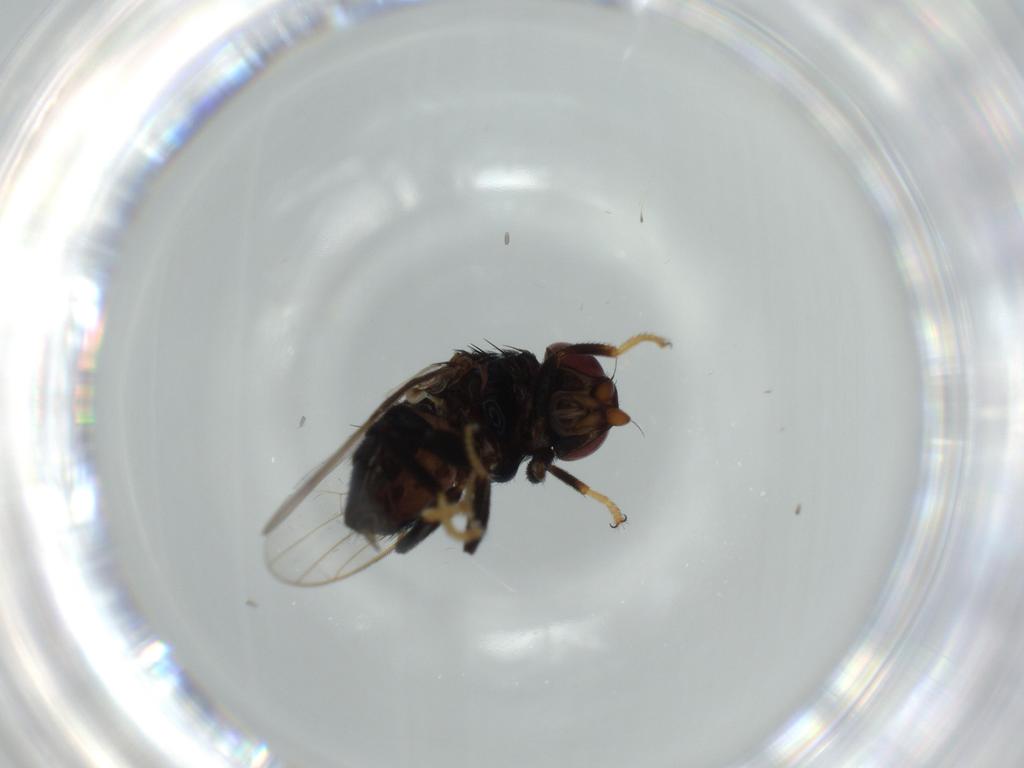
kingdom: Animalia
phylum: Arthropoda
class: Insecta
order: Diptera
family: Chloropidae
